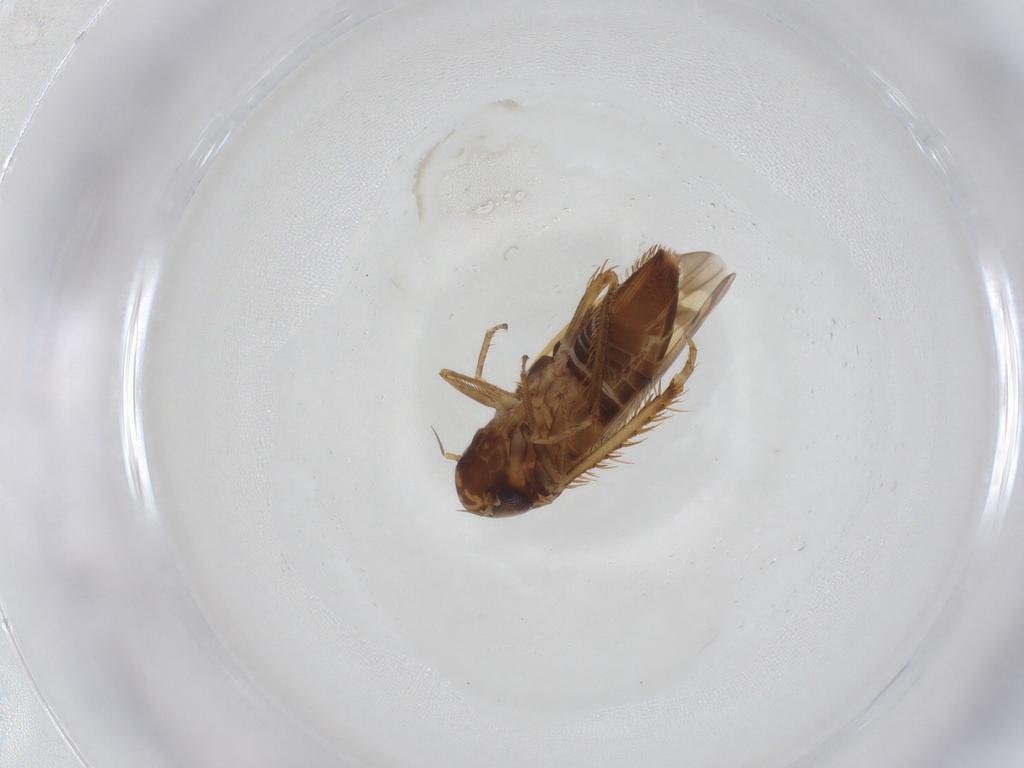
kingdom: Animalia
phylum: Arthropoda
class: Insecta
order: Hemiptera
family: Cicadellidae
